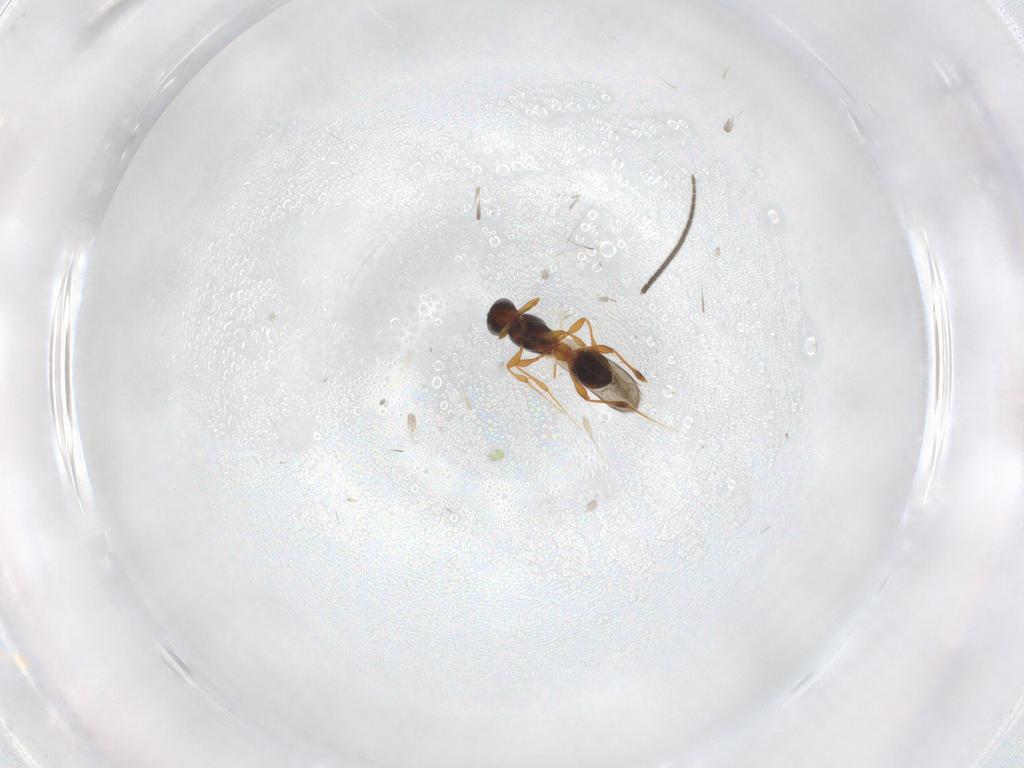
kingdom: Animalia
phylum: Arthropoda
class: Insecta
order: Hymenoptera
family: Platygastridae
